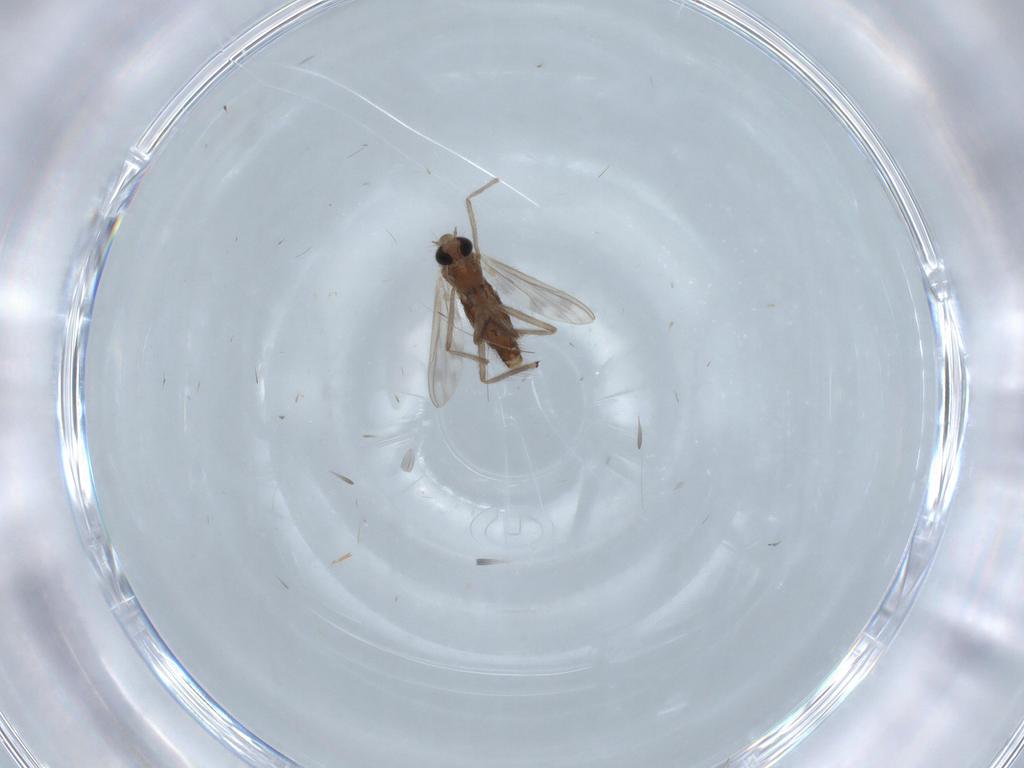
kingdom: Animalia
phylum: Arthropoda
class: Insecta
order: Diptera
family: Chironomidae
